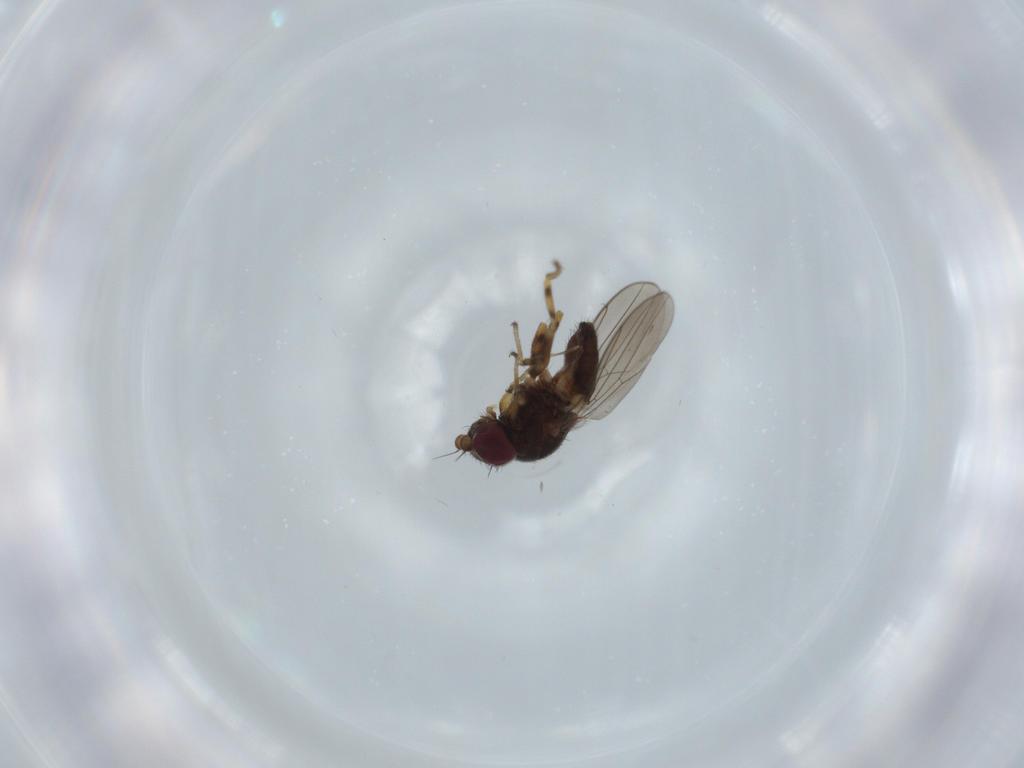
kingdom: Animalia
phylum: Arthropoda
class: Insecta
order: Diptera
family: Chloropidae
